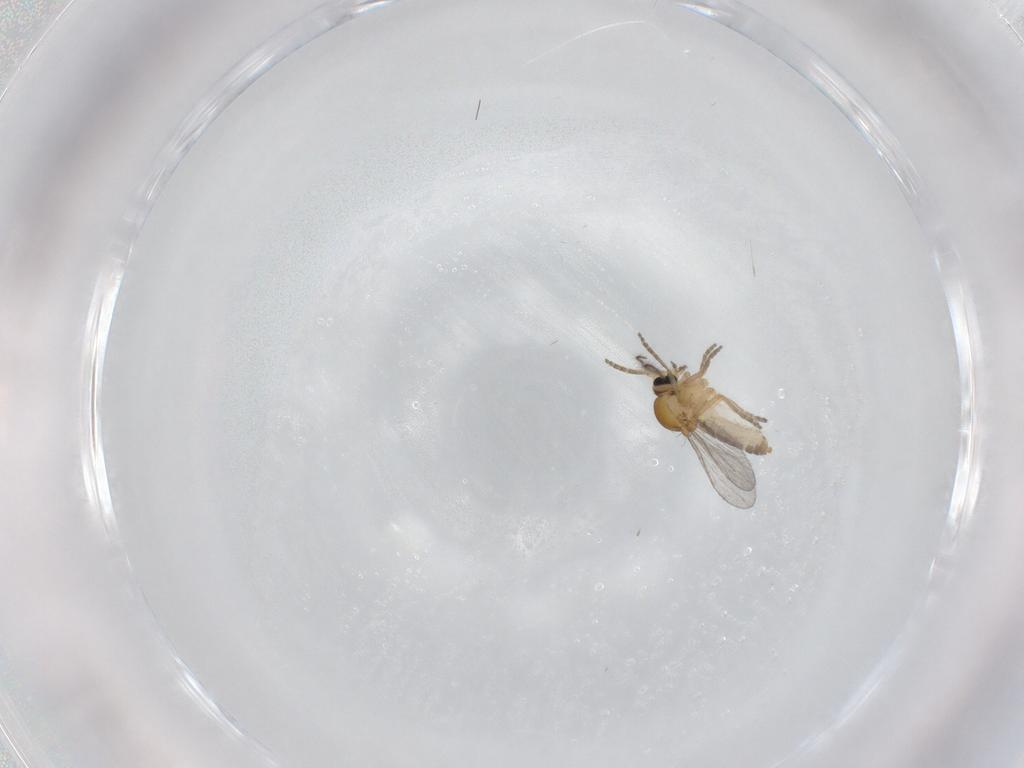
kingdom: Animalia
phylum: Arthropoda
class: Insecta
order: Diptera
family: Ceratopogonidae
